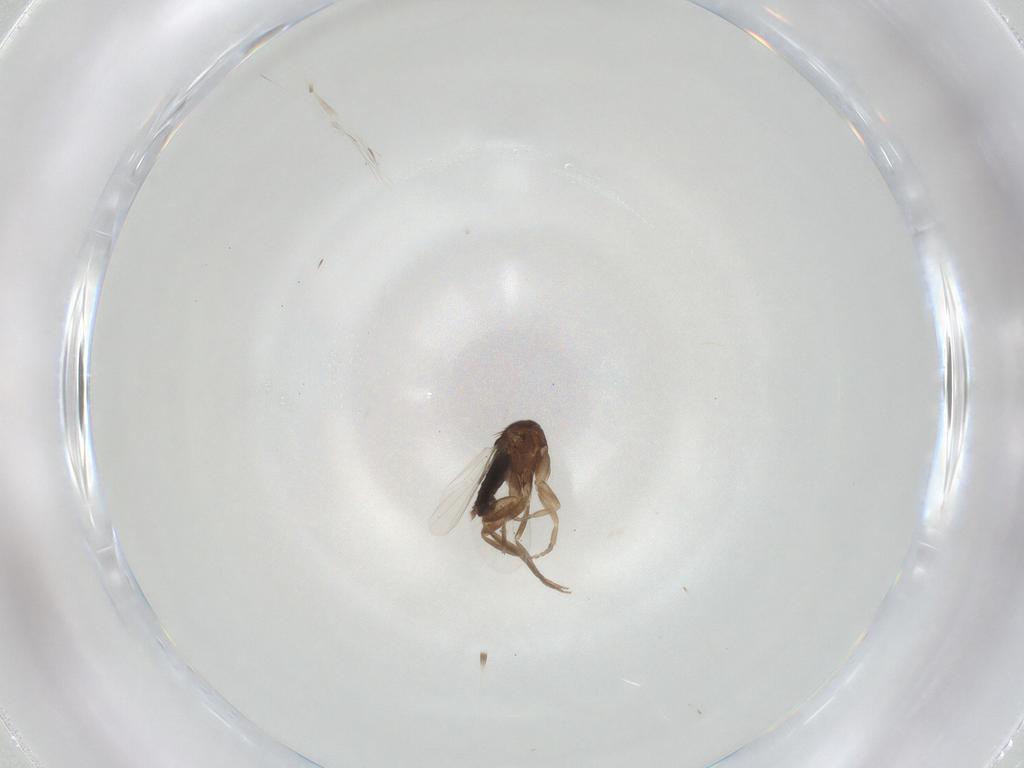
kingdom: Animalia
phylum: Arthropoda
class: Insecta
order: Diptera
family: Phoridae
